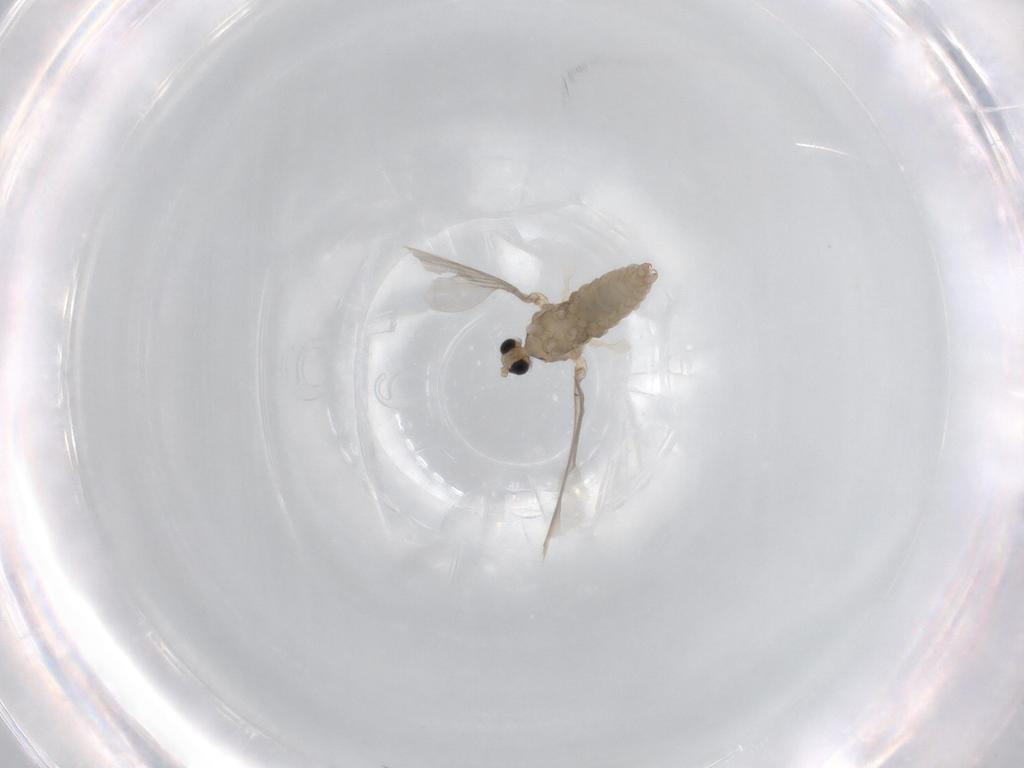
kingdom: Animalia
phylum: Arthropoda
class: Insecta
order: Diptera
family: Cecidomyiidae
